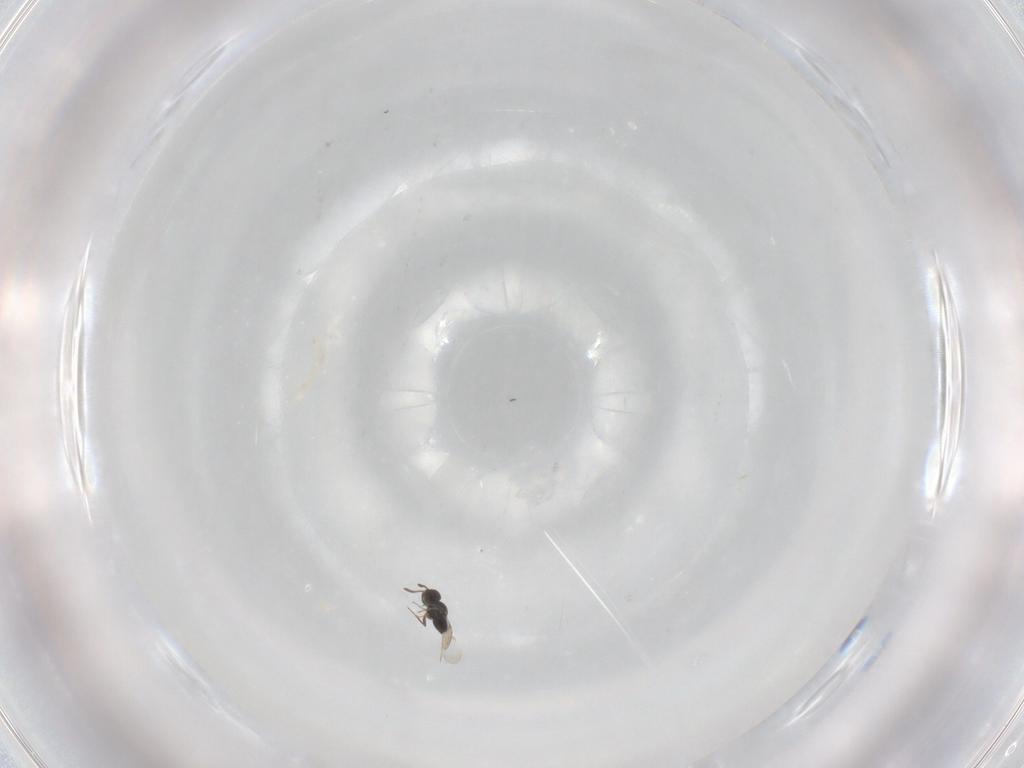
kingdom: Animalia
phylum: Arthropoda
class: Insecta
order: Hymenoptera
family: Ceraphronidae
